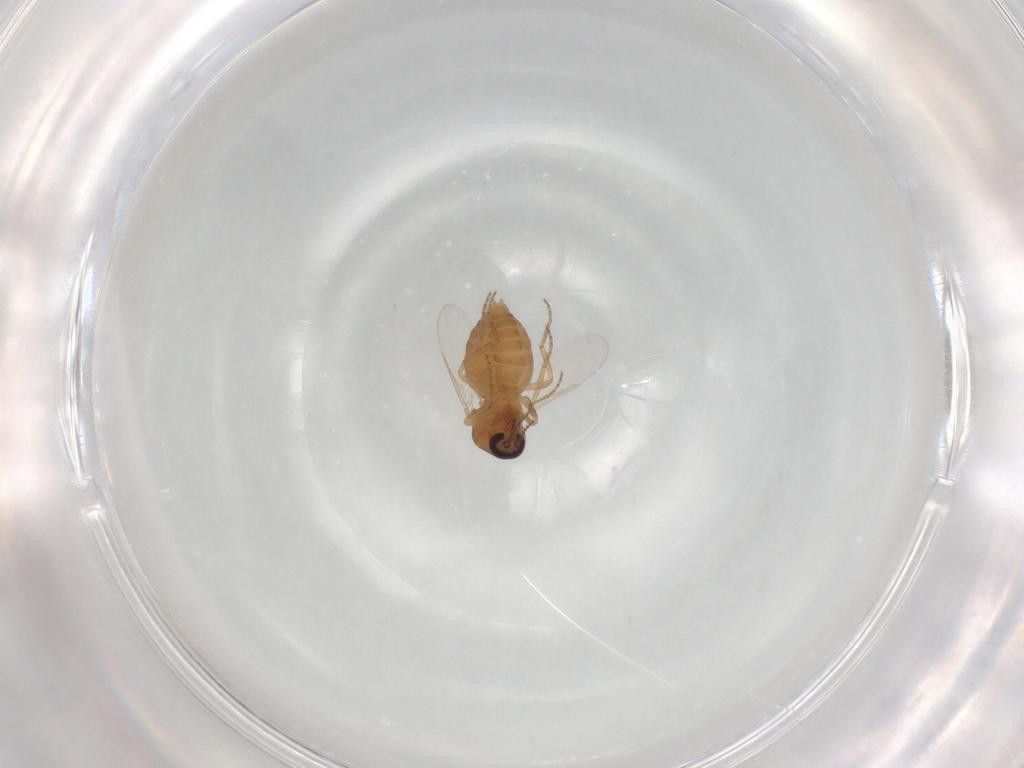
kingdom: Animalia
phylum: Arthropoda
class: Insecta
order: Diptera
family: Ceratopogonidae
